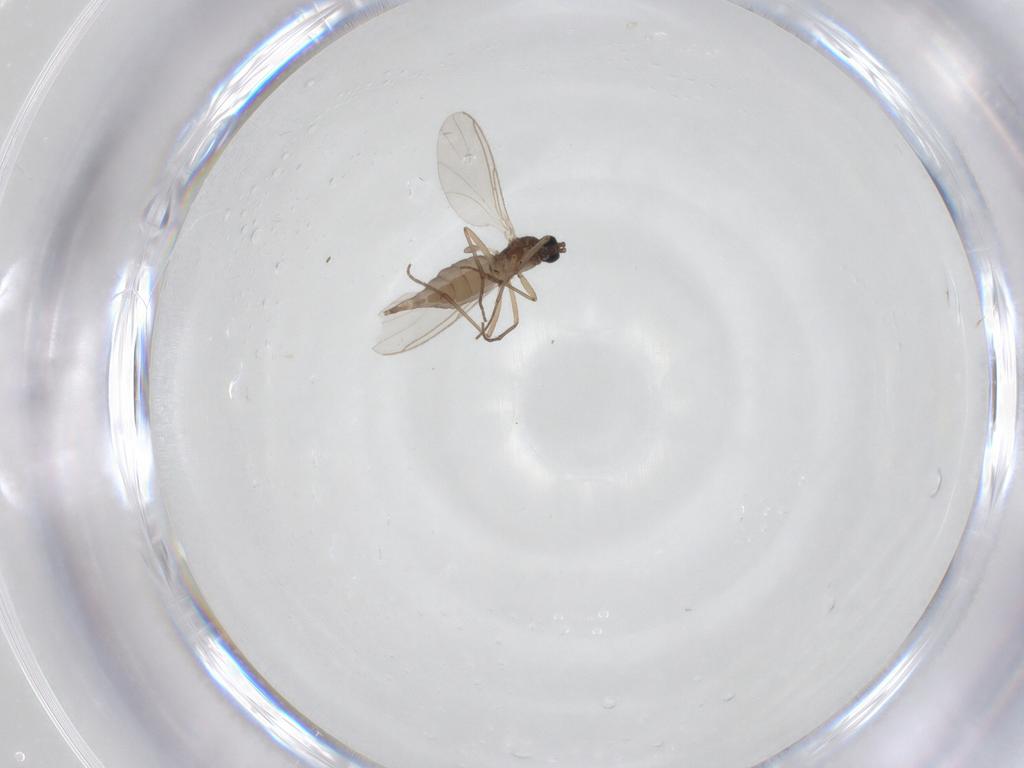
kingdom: Animalia
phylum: Arthropoda
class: Insecta
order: Diptera
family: Sciaridae
